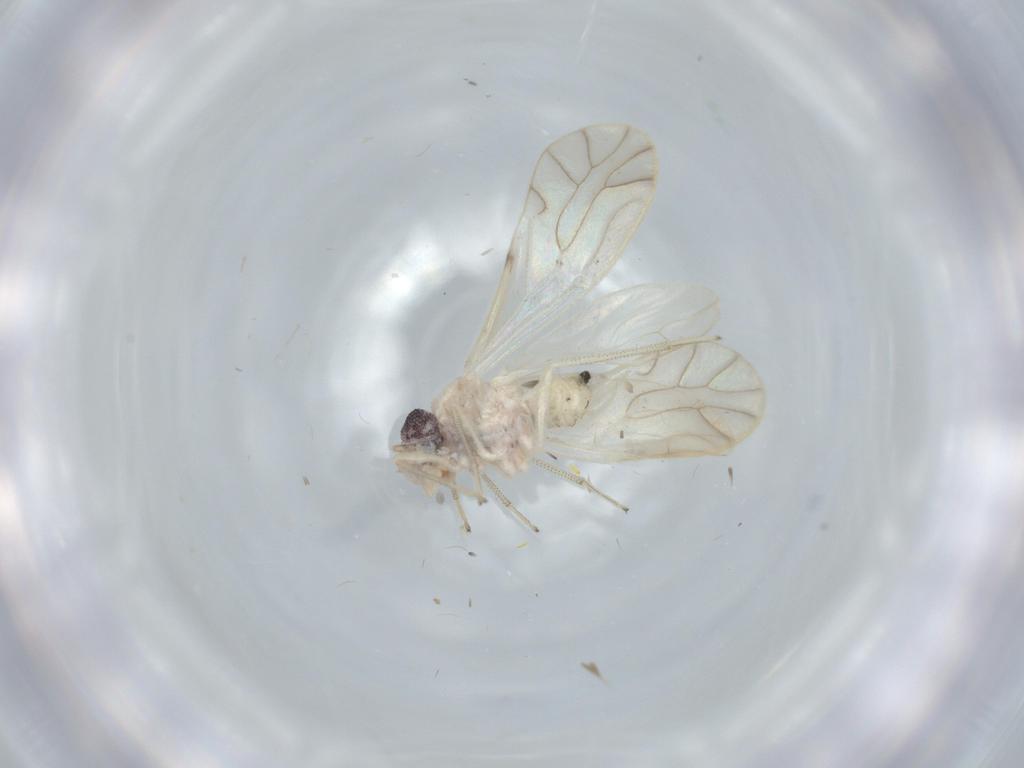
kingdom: Animalia
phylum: Arthropoda
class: Insecta
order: Psocodea
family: Caeciliusidae
